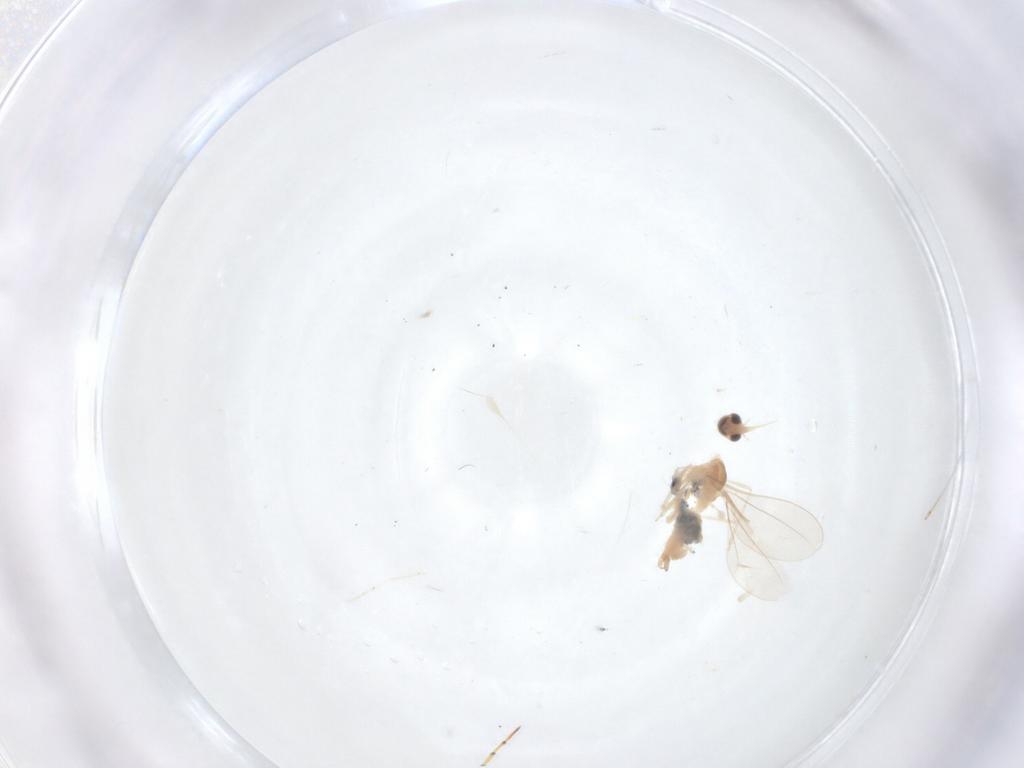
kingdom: Animalia
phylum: Arthropoda
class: Insecta
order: Diptera
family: Cecidomyiidae
